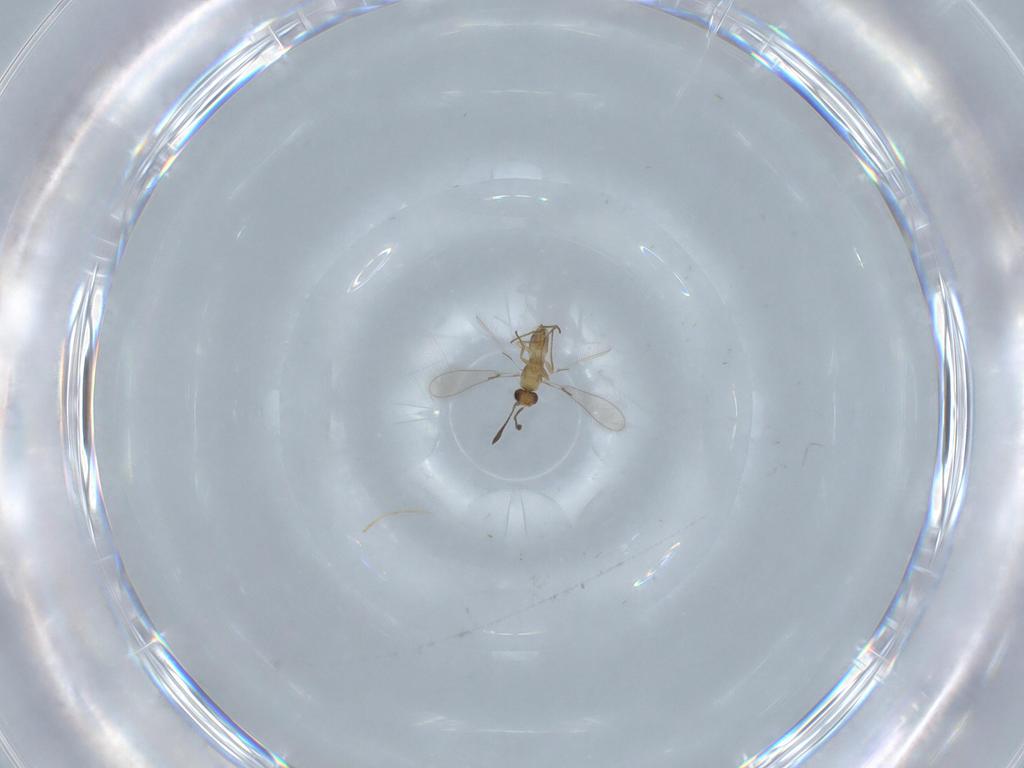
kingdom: Animalia
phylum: Arthropoda
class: Insecta
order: Hymenoptera
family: Mymaridae
